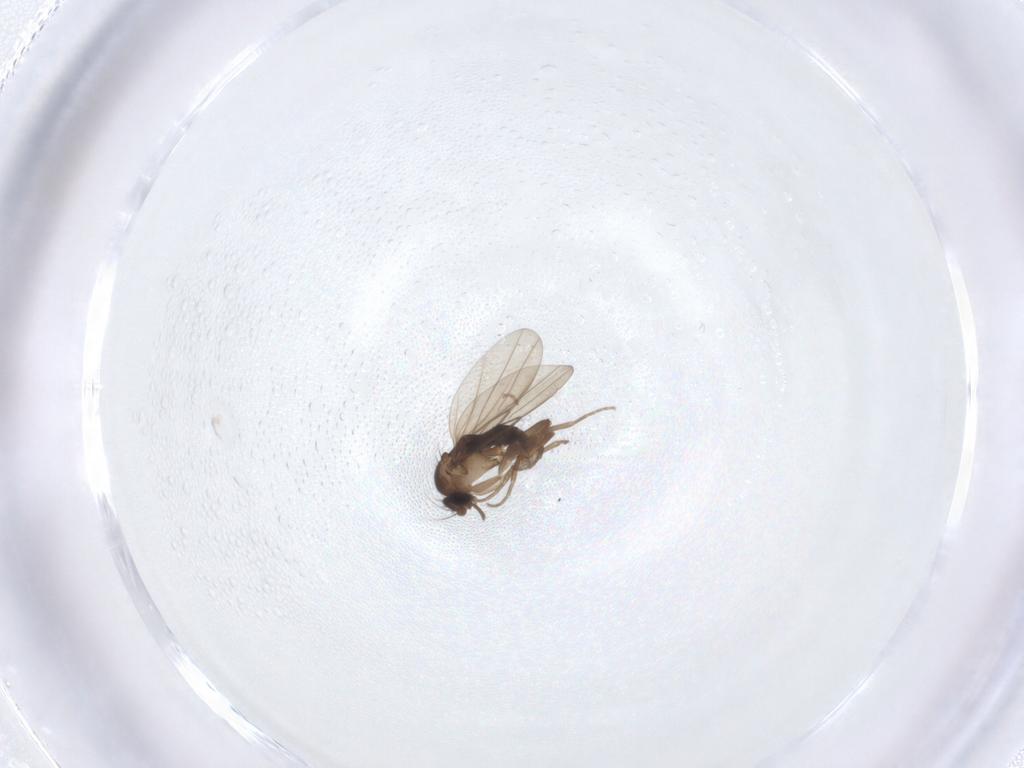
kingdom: Animalia
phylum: Arthropoda
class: Insecta
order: Diptera
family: Phoridae
